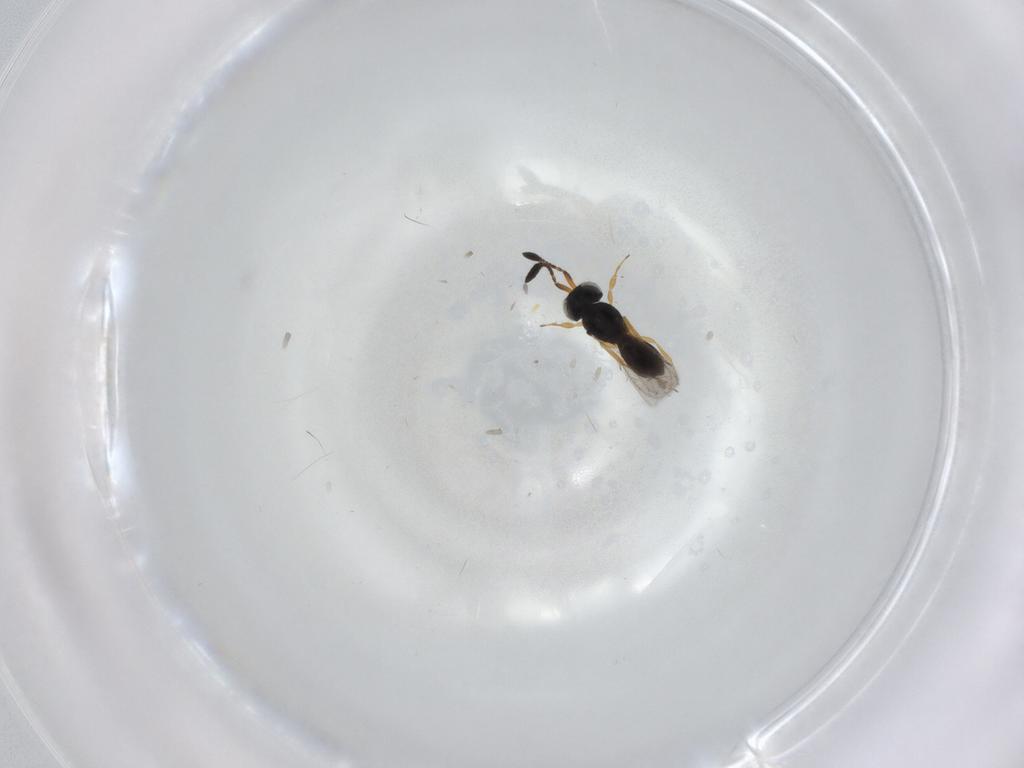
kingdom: Animalia
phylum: Arthropoda
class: Insecta
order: Hymenoptera
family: Scelionidae
